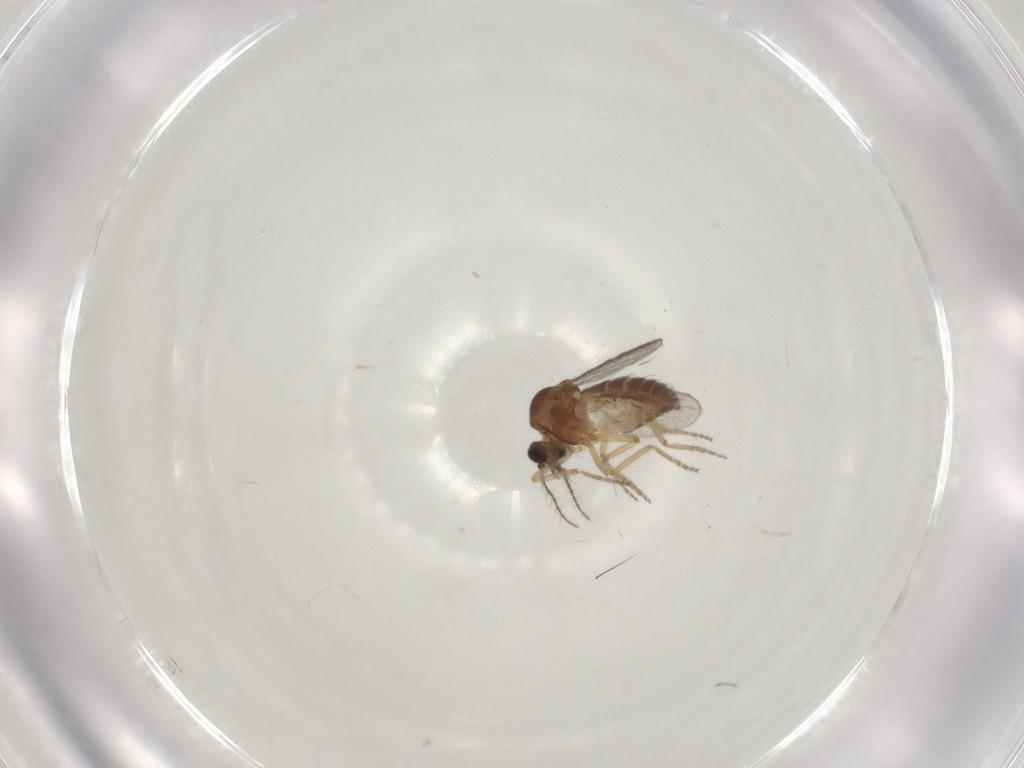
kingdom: Animalia
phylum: Arthropoda
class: Insecta
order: Diptera
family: Ceratopogonidae
